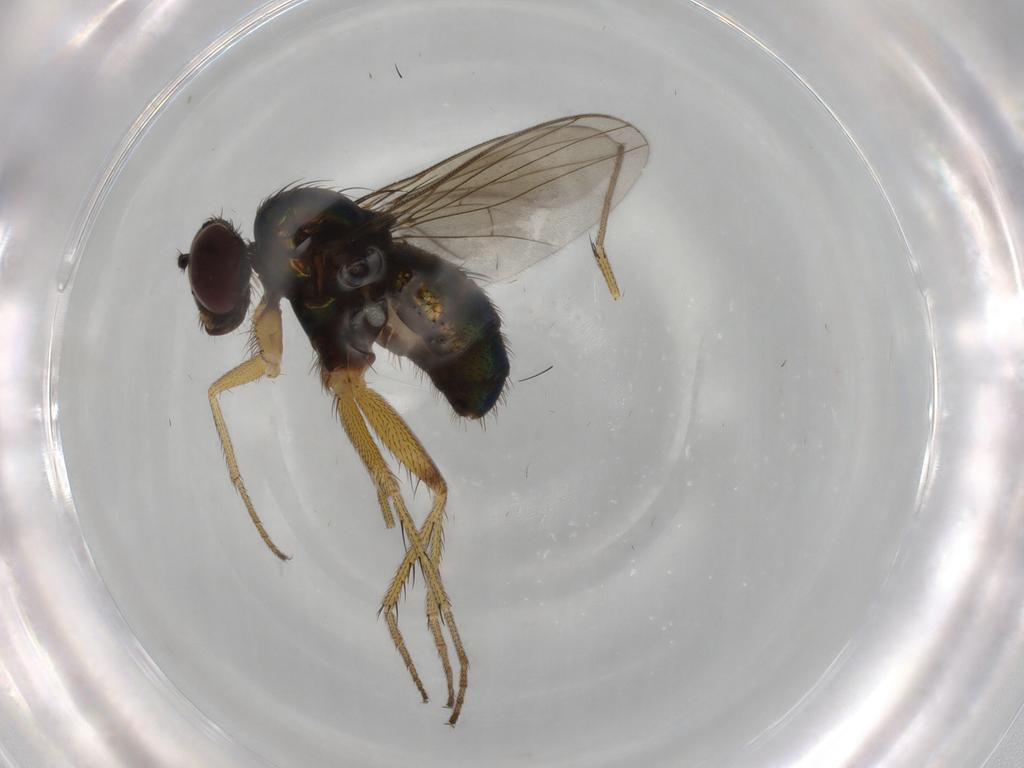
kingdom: Animalia
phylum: Arthropoda
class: Insecta
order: Diptera
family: Dolichopodidae
